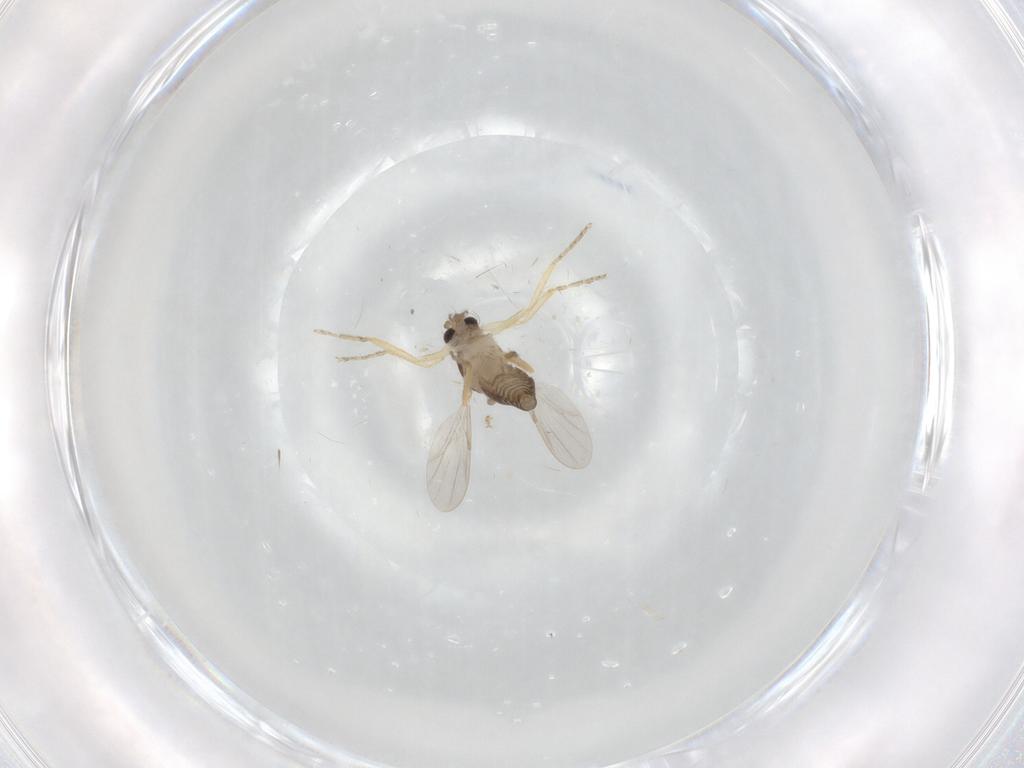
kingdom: Animalia
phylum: Arthropoda
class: Insecta
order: Diptera
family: Ceratopogonidae
